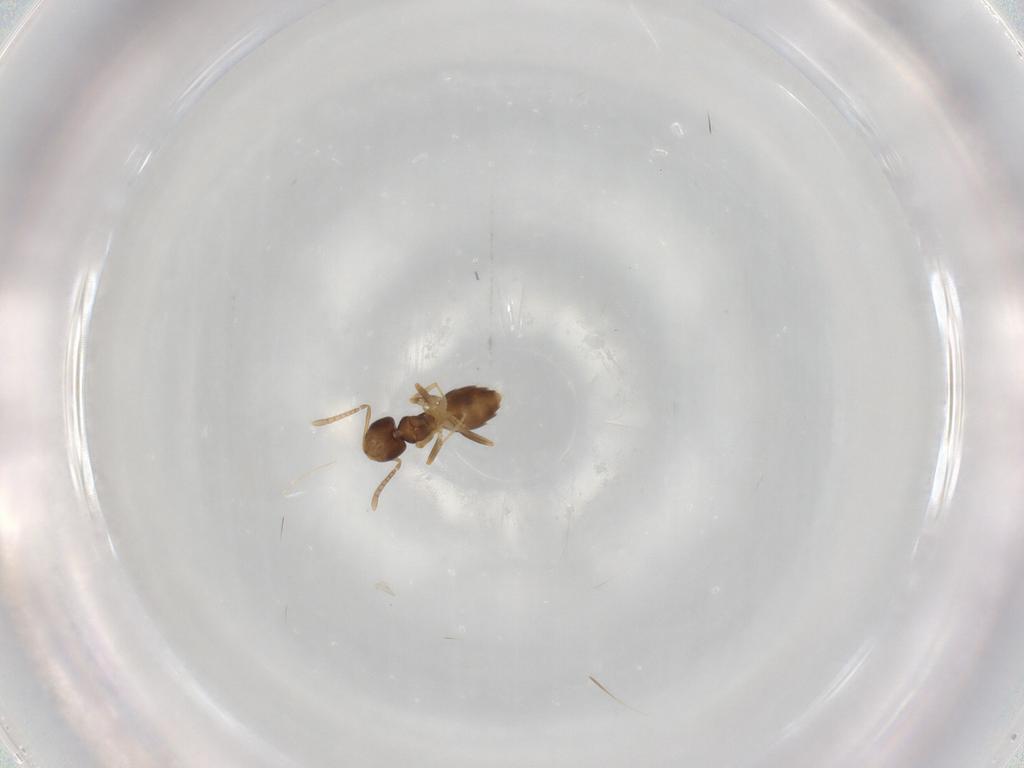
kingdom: Animalia
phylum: Arthropoda
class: Insecta
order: Hymenoptera
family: Formicidae
